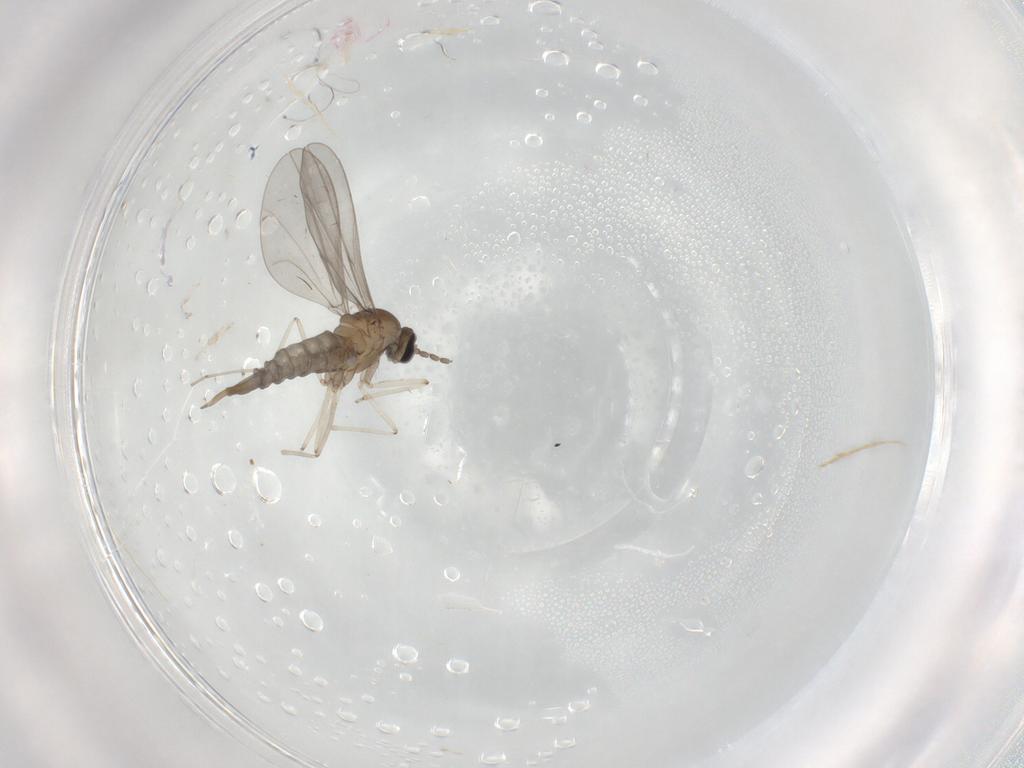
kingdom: Animalia
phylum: Arthropoda
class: Insecta
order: Diptera
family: Cecidomyiidae
